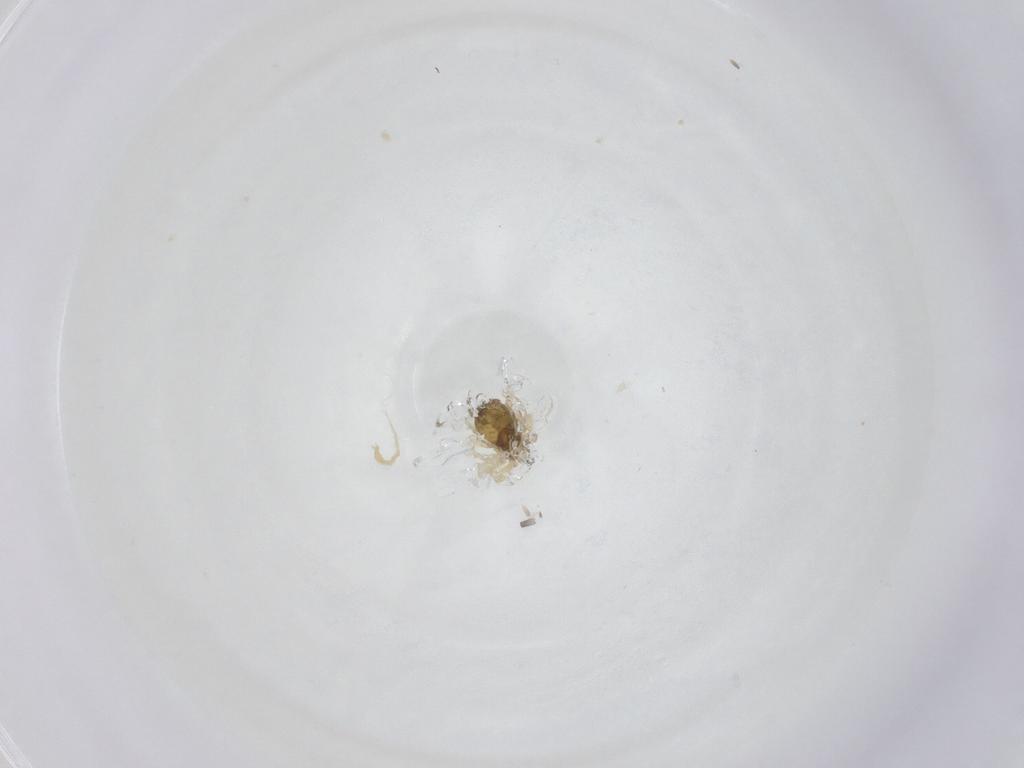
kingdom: Animalia
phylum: Arthropoda
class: Arachnida
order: Trombidiformes
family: Anystidae
